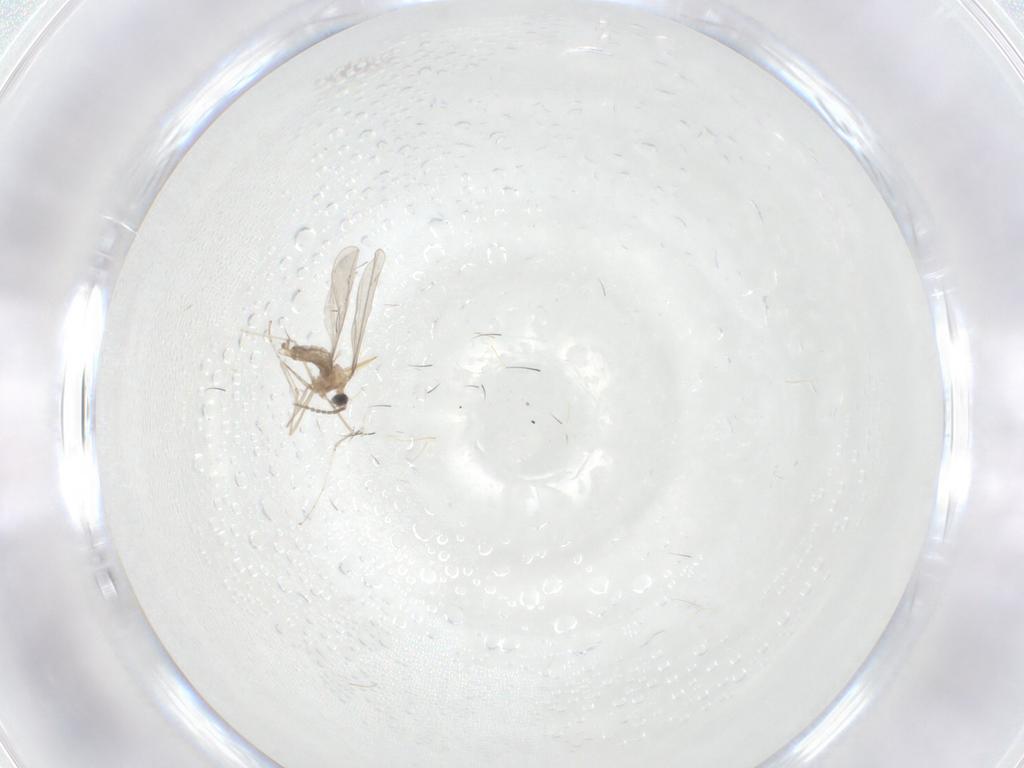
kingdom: Animalia
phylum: Arthropoda
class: Insecta
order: Diptera
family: Cecidomyiidae
